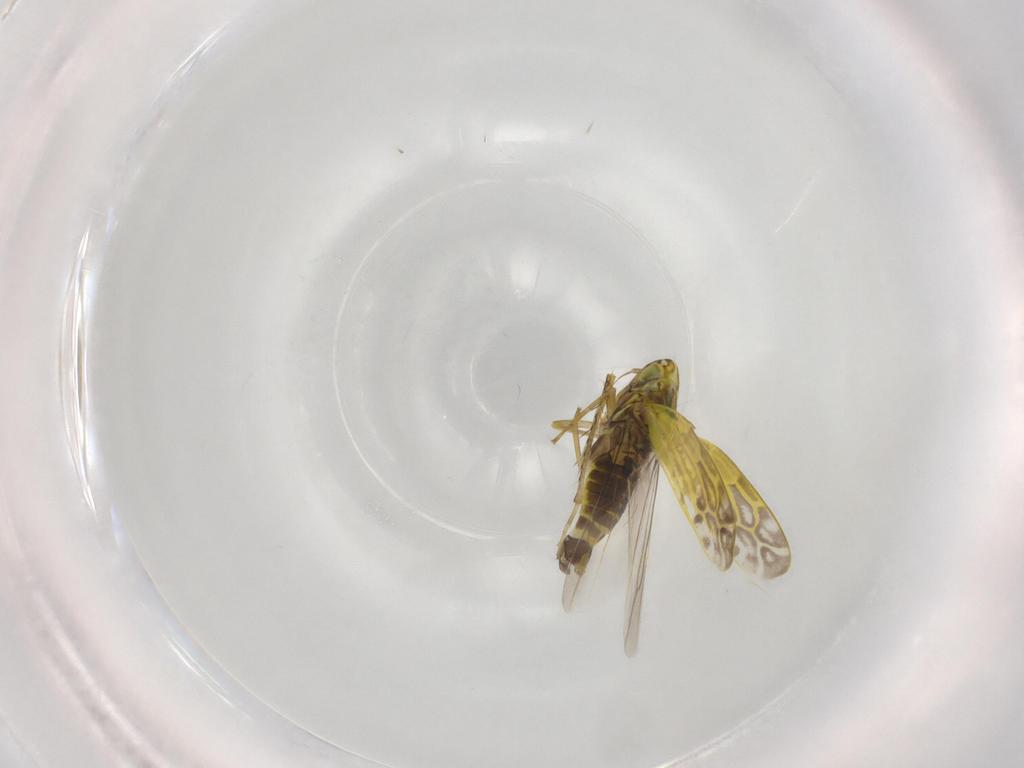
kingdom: Animalia
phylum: Arthropoda
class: Insecta
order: Hemiptera
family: Cicadellidae
